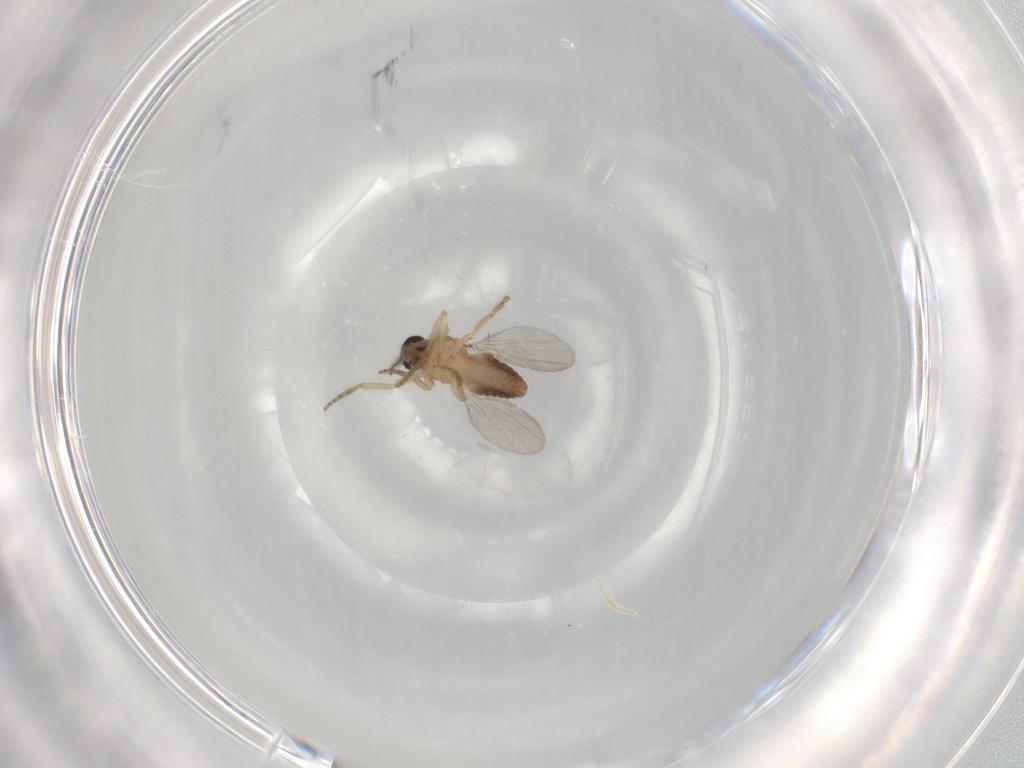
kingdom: Animalia
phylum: Arthropoda
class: Insecta
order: Diptera
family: Ceratopogonidae
